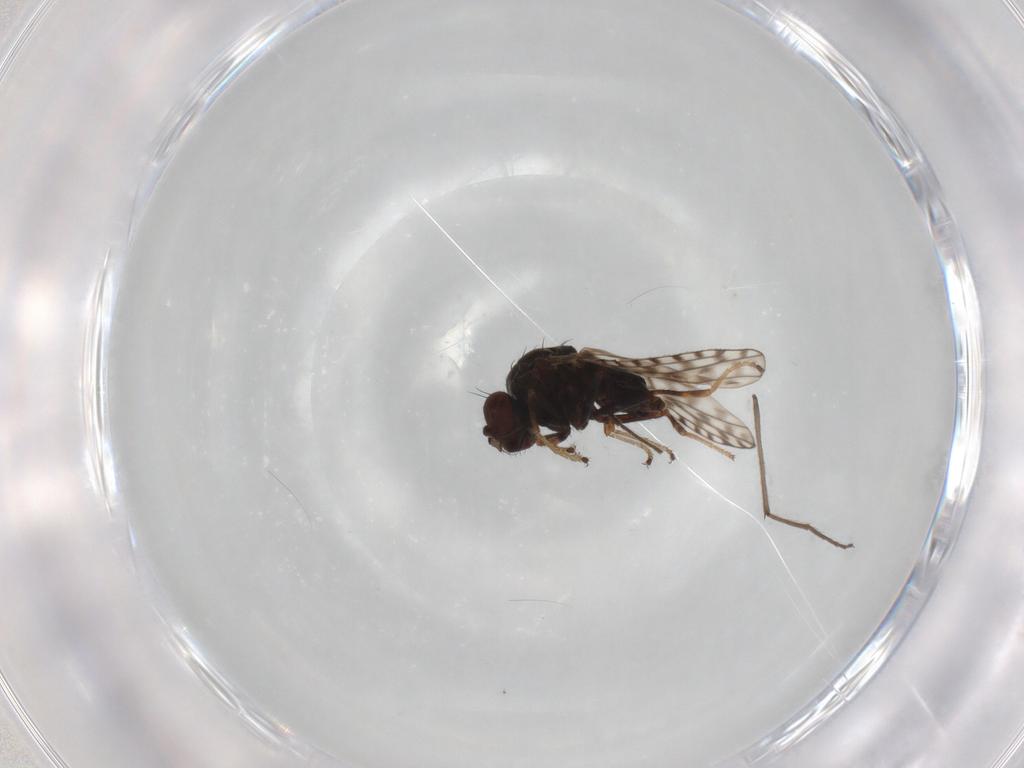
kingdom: Animalia
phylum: Arthropoda
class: Insecta
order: Diptera
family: Ephydridae
